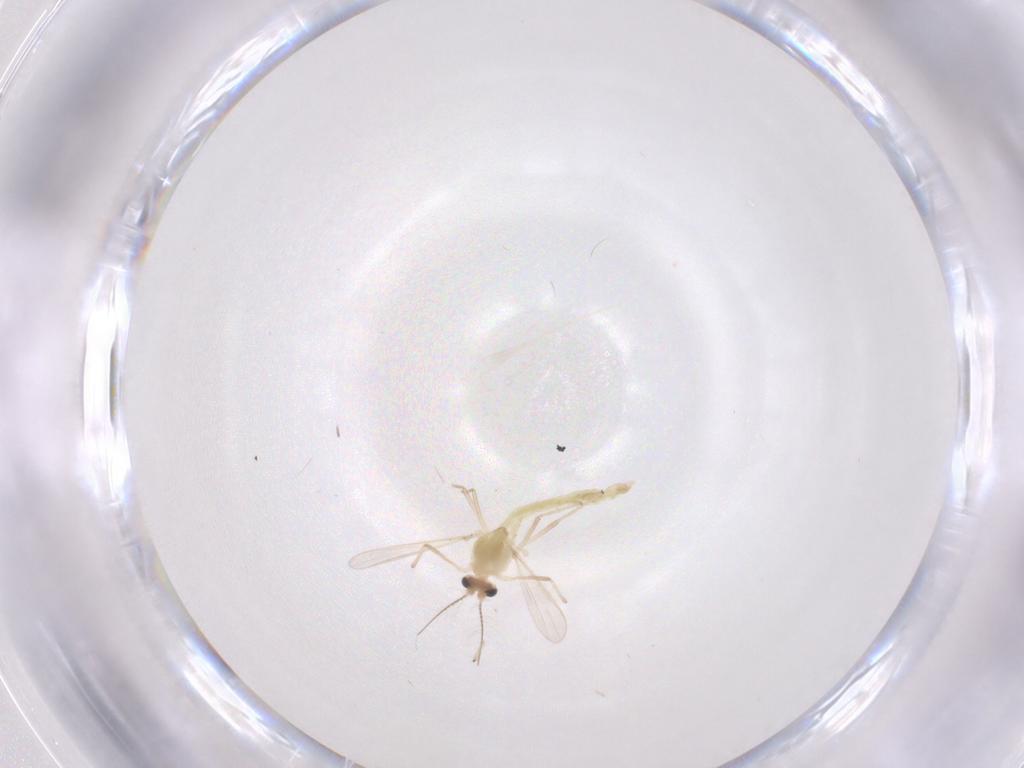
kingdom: Animalia
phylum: Arthropoda
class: Insecta
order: Diptera
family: Chironomidae
